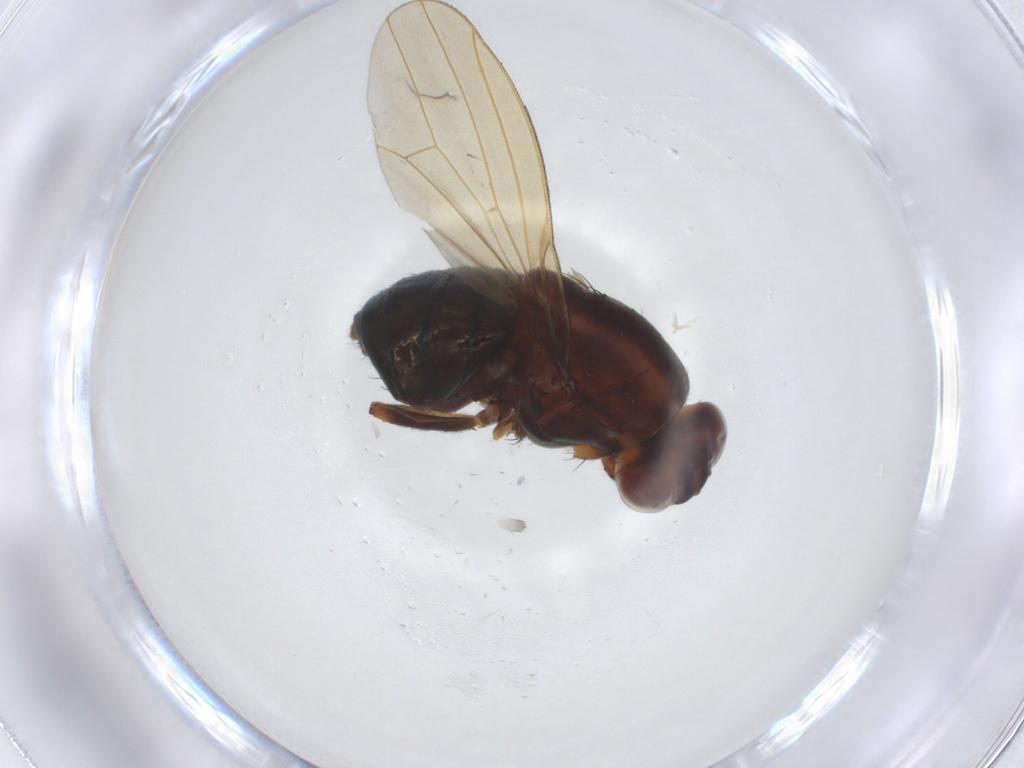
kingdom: Animalia
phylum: Arthropoda
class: Insecta
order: Diptera
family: Lauxaniidae
